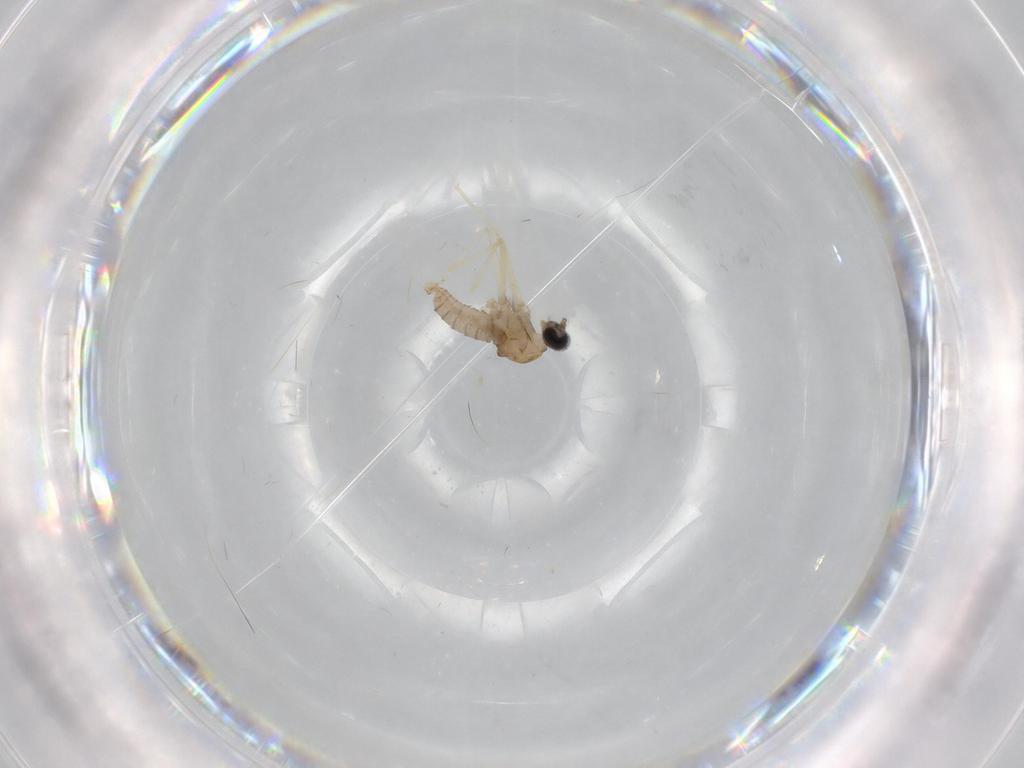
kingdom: Animalia
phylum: Arthropoda
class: Insecta
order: Diptera
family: Cecidomyiidae
